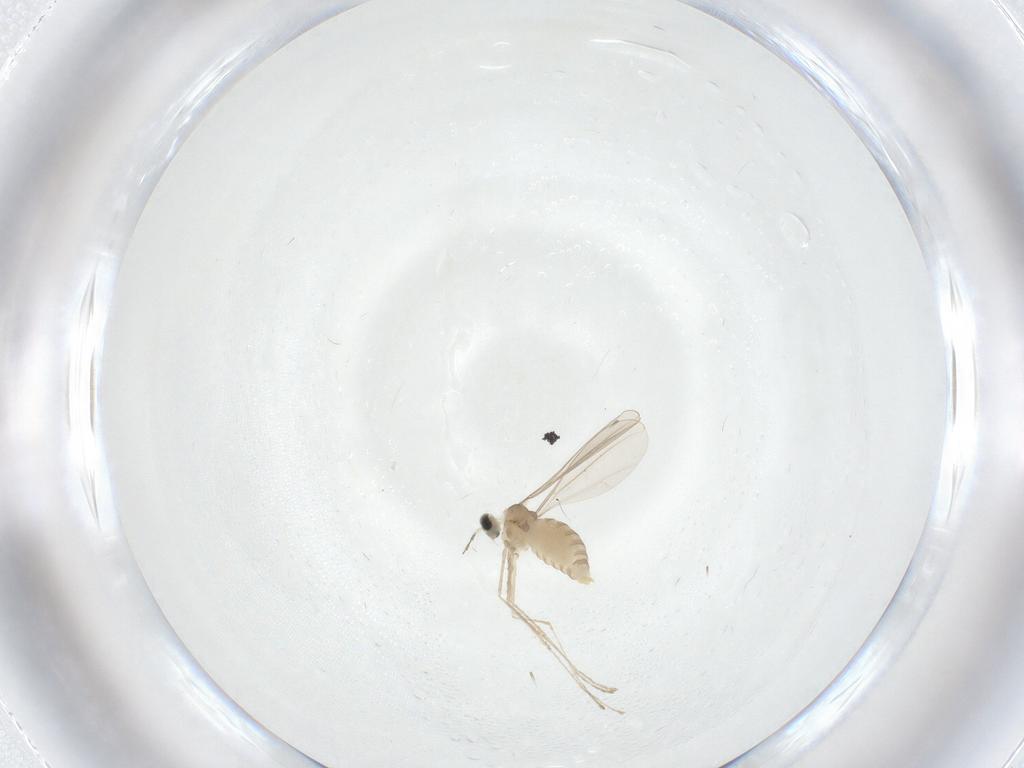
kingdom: Animalia
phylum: Arthropoda
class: Insecta
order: Diptera
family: Cecidomyiidae
